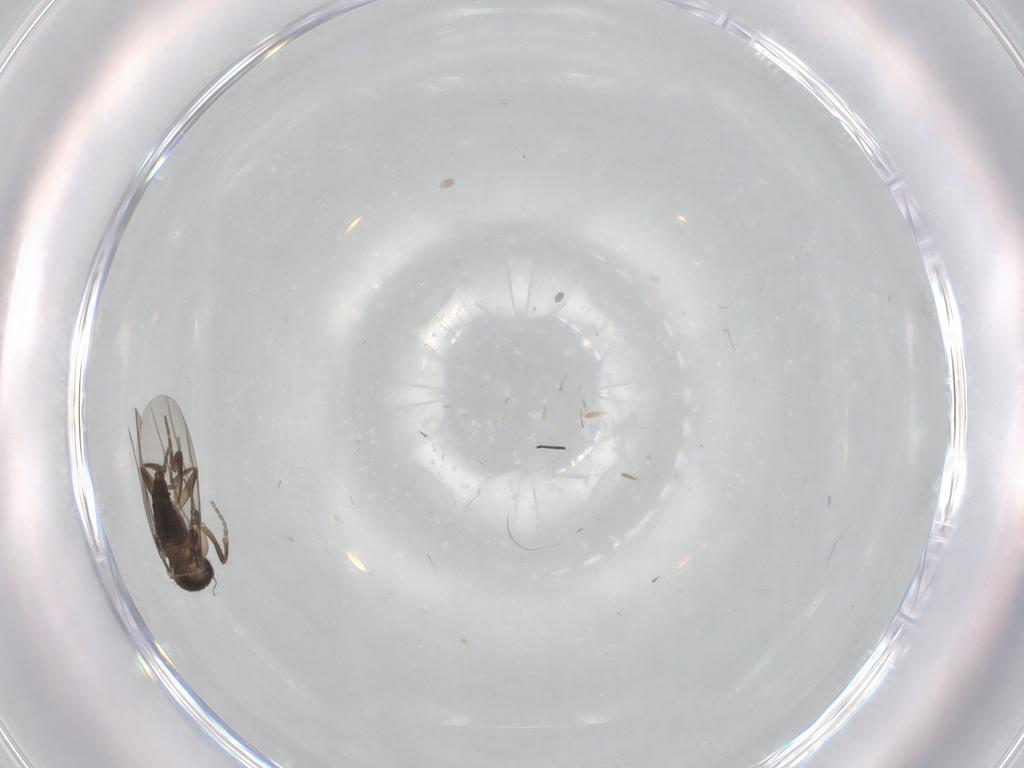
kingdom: Animalia
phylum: Arthropoda
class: Insecta
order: Diptera
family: Phoridae
